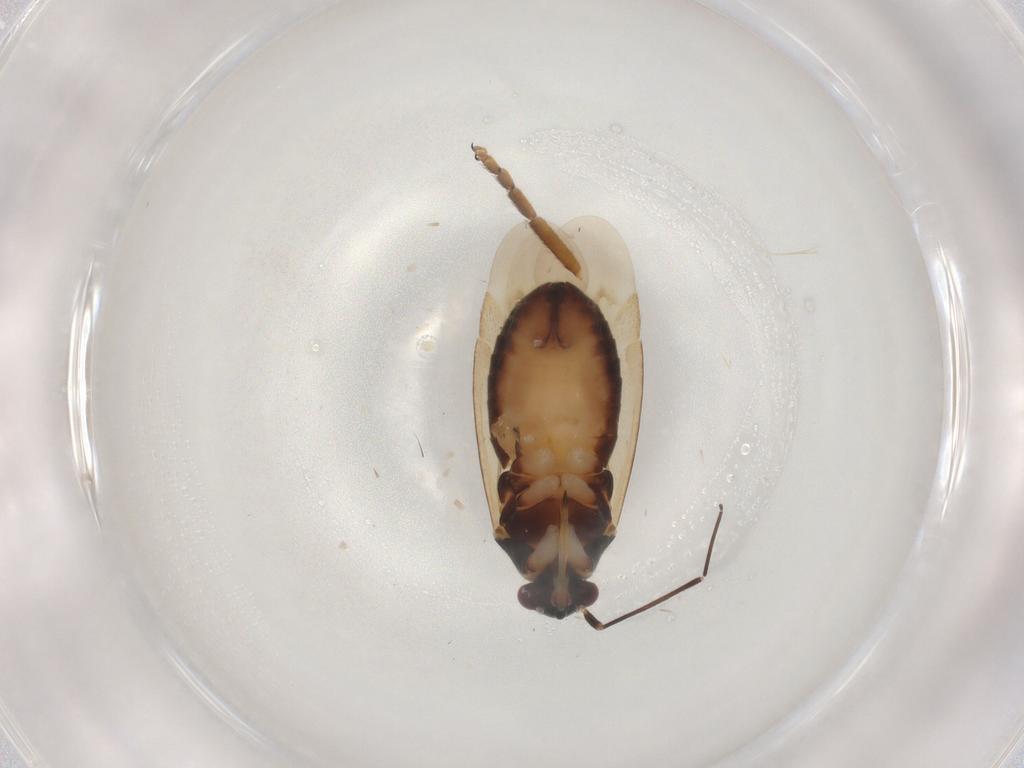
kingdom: Animalia
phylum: Arthropoda
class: Insecta
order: Hemiptera
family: Miridae
